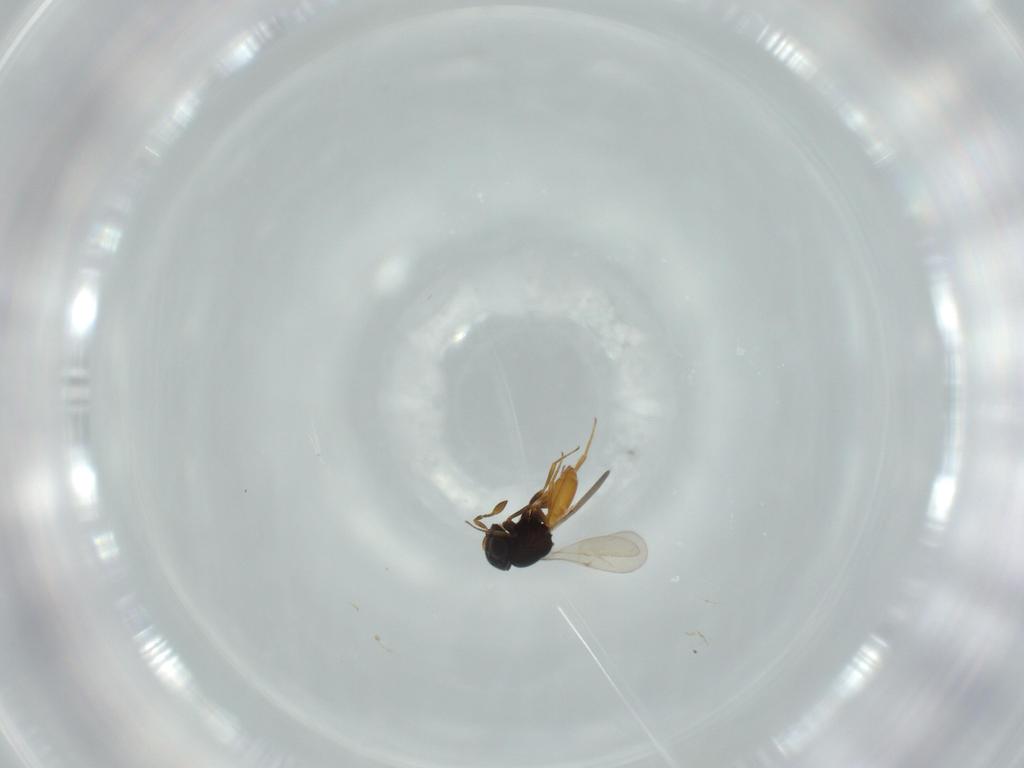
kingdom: Animalia
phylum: Arthropoda
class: Insecta
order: Hymenoptera
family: Scelionidae
